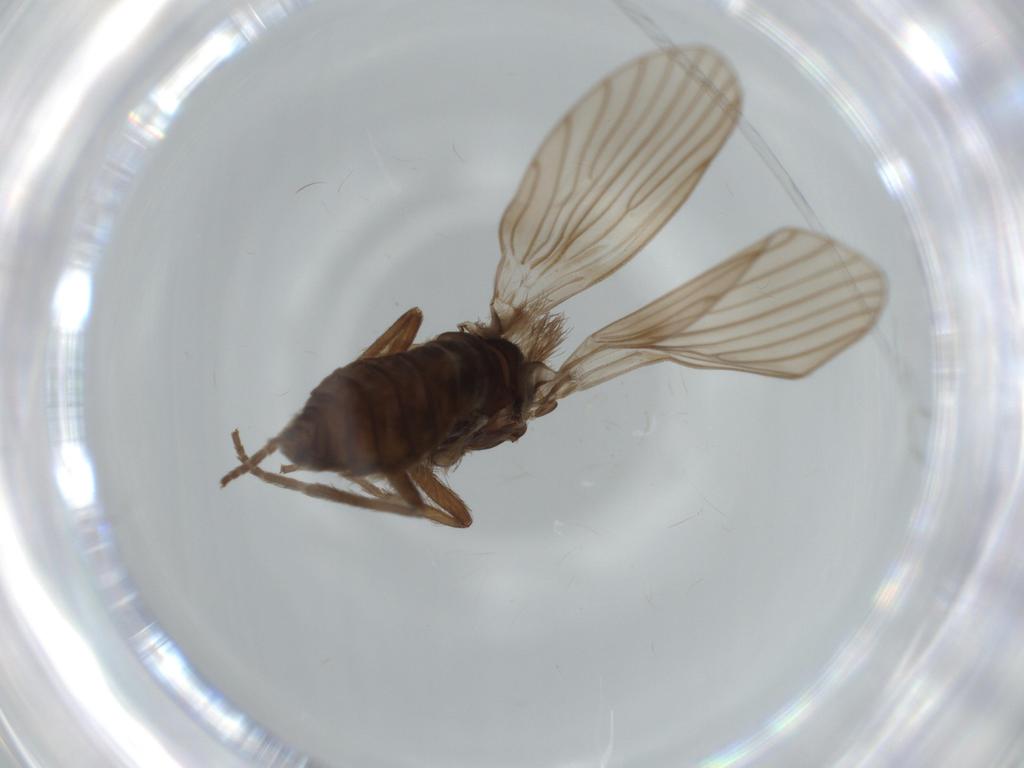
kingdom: Animalia
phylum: Arthropoda
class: Insecta
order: Diptera
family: Psychodidae
